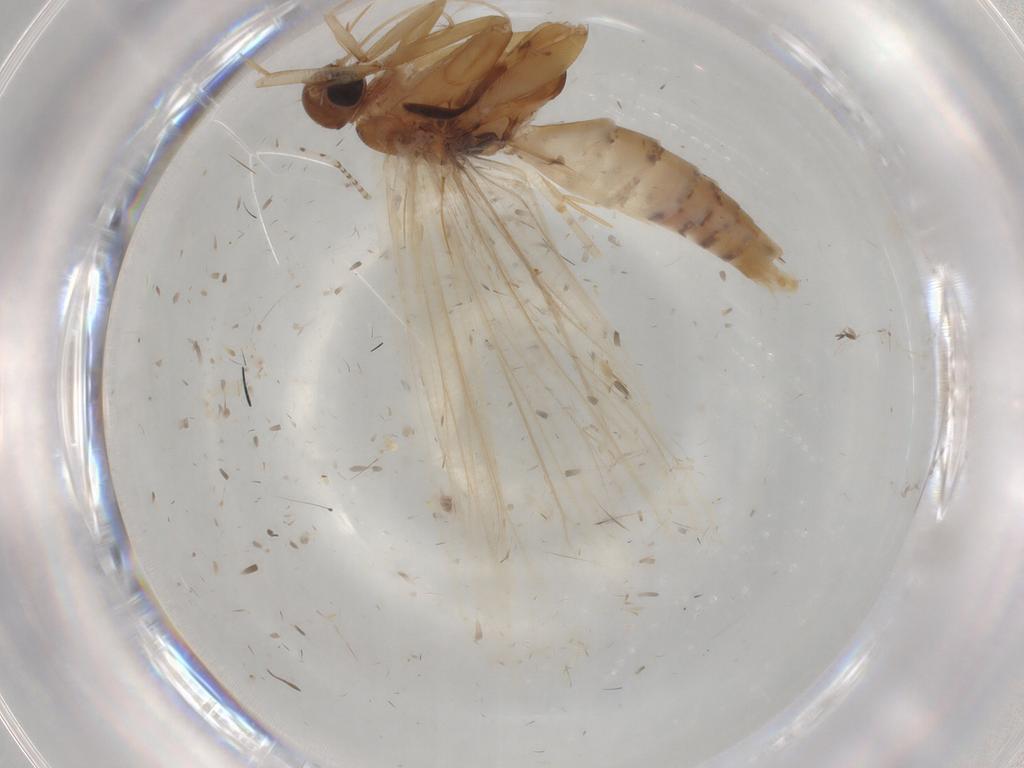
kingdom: Animalia
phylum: Arthropoda
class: Insecta
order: Lepidoptera
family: Gelechiidae
